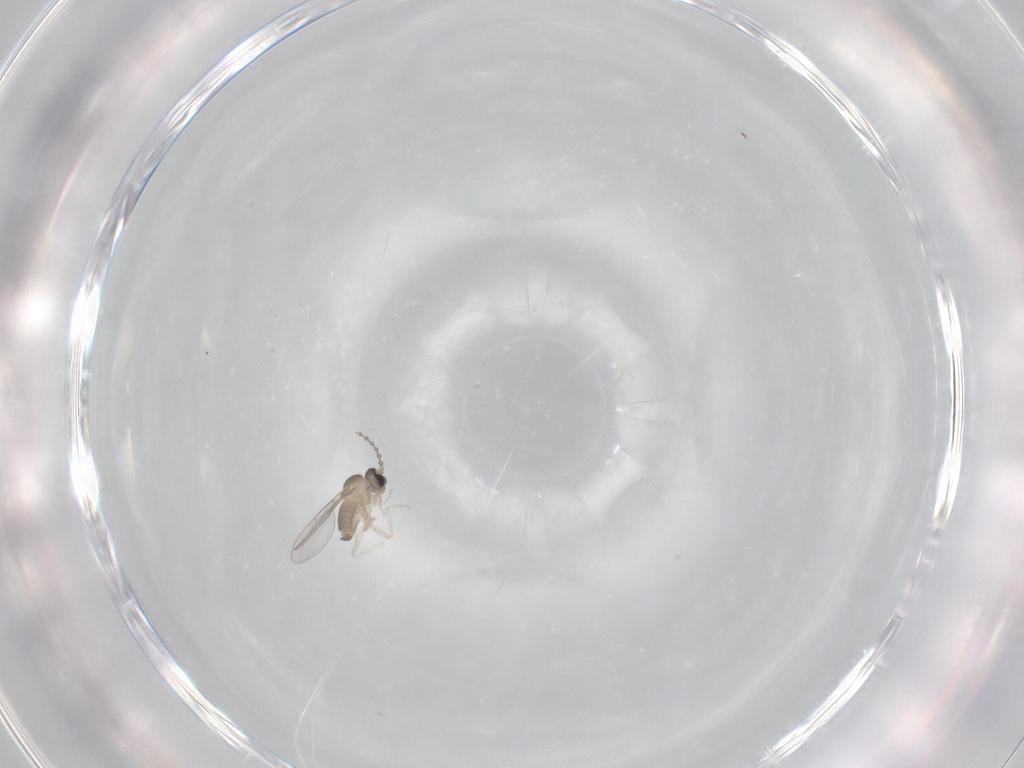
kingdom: Animalia
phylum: Arthropoda
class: Insecta
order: Diptera
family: Cecidomyiidae
